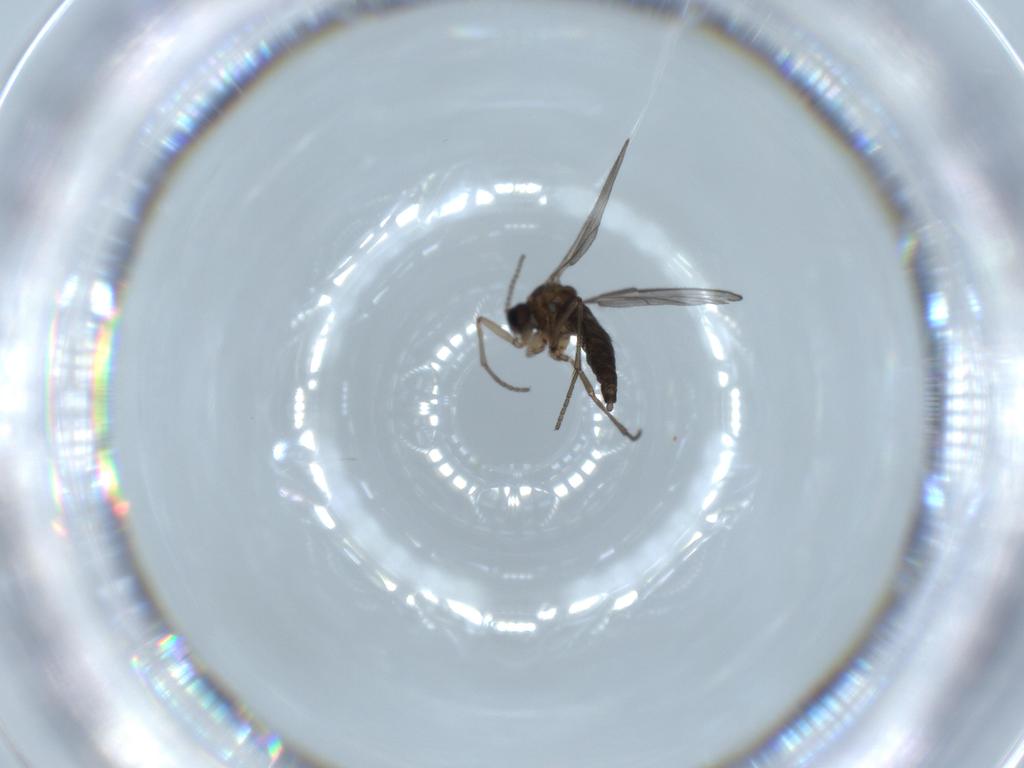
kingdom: Animalia
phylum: Arthropoda
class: Insecta
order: Diptera
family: Sciaridae
